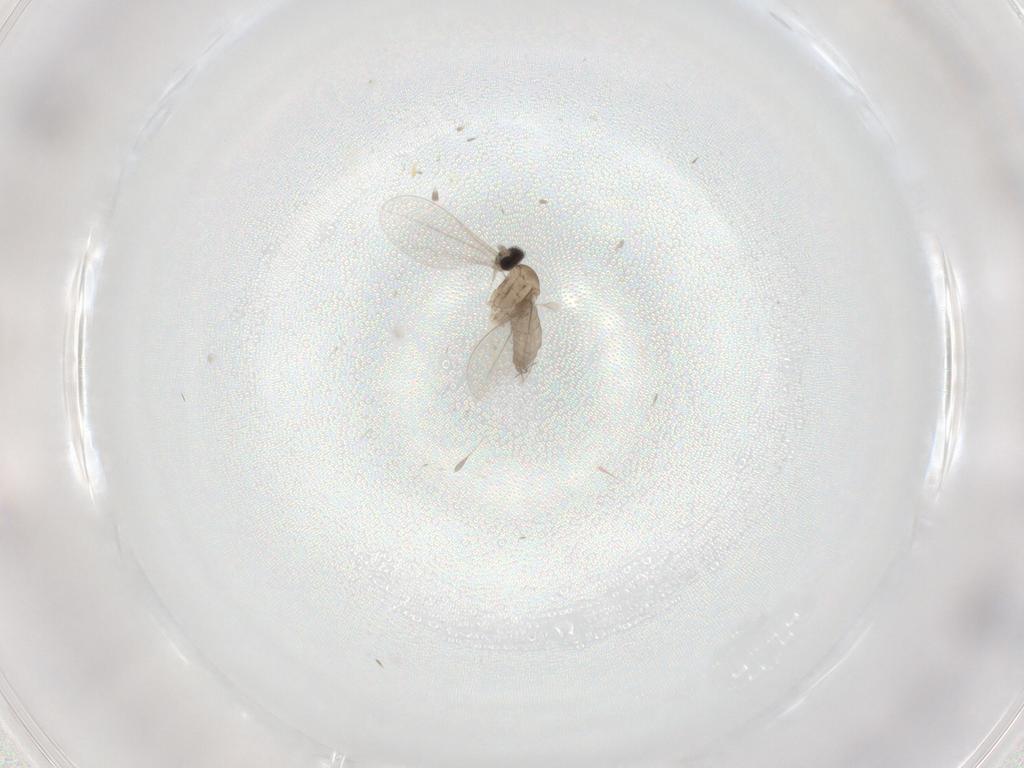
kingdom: Animalia
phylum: Arthropoda
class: Insecta
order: Diptera
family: Cecidomyiidae
